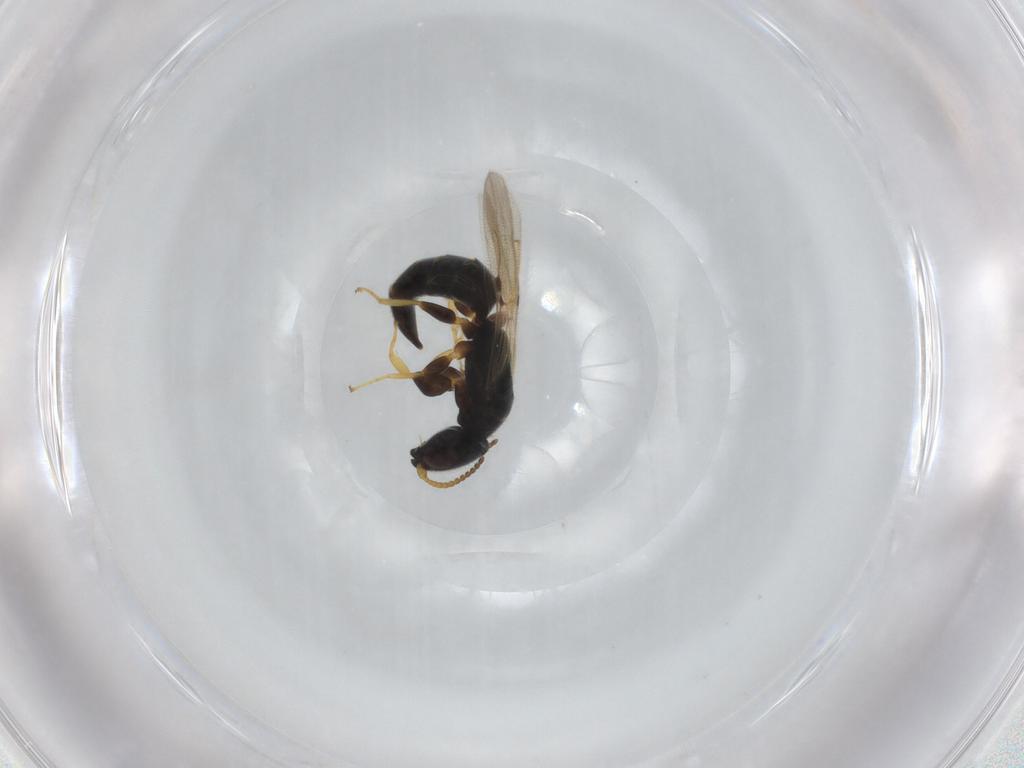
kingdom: Animalia
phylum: Arthropoda
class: Insecta
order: Hymenoptera
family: Bethylidae
